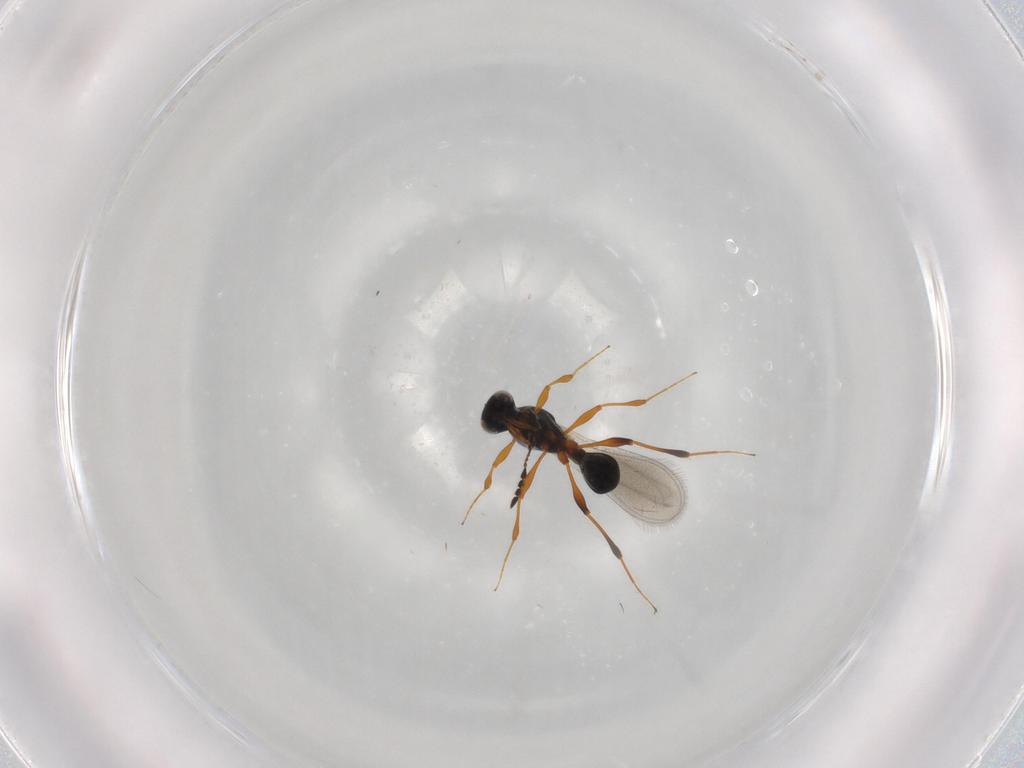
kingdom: Animalia
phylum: Arthropoda
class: Insecta
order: Hymenoptera
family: Platygastridae
